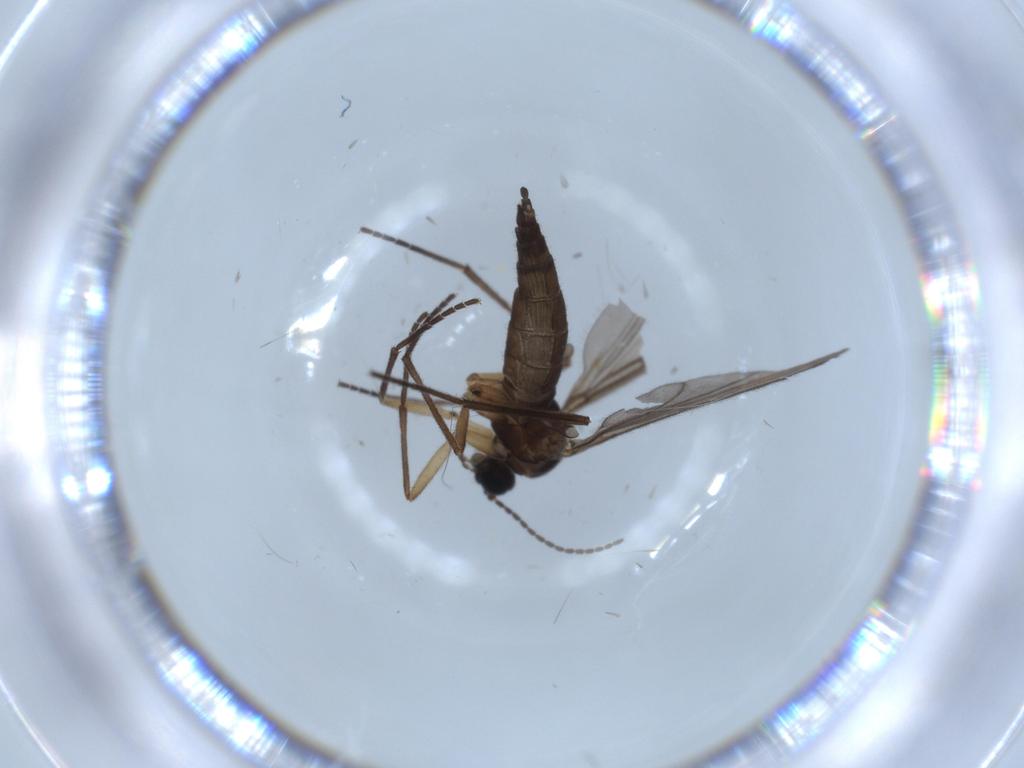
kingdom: Animalia
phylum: Arthropoda
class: Insecta
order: Diptera
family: Sciaridae
